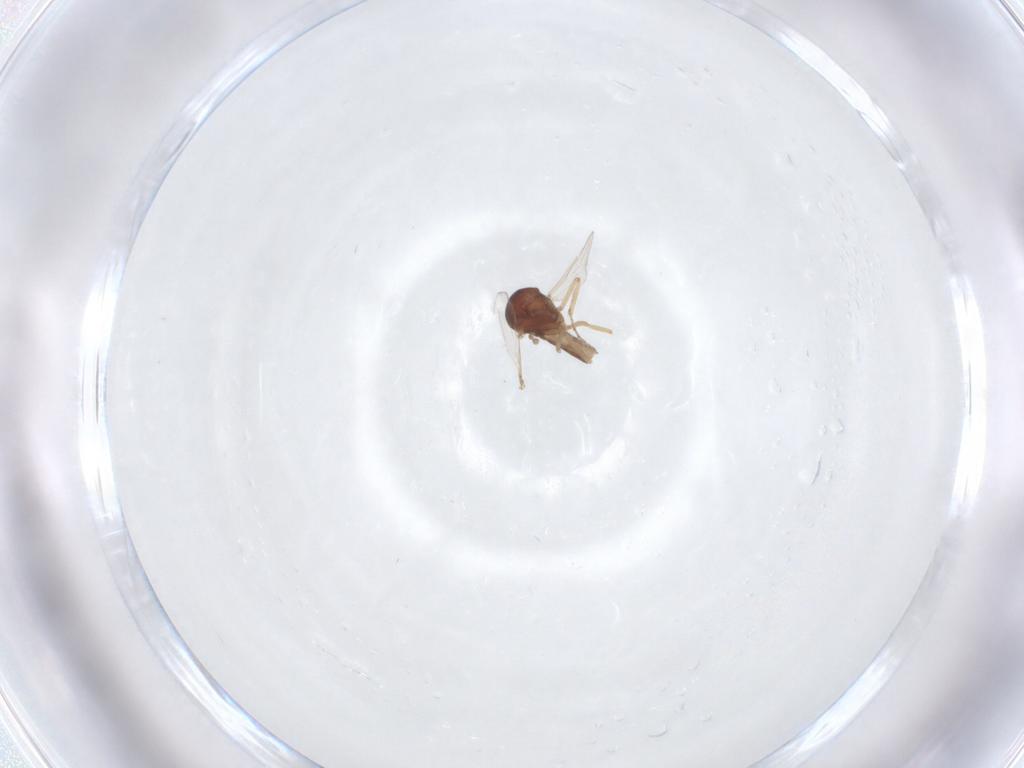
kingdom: Animalia
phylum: Arthropoda
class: Insecta
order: Diptera
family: Ceratopogonidae
